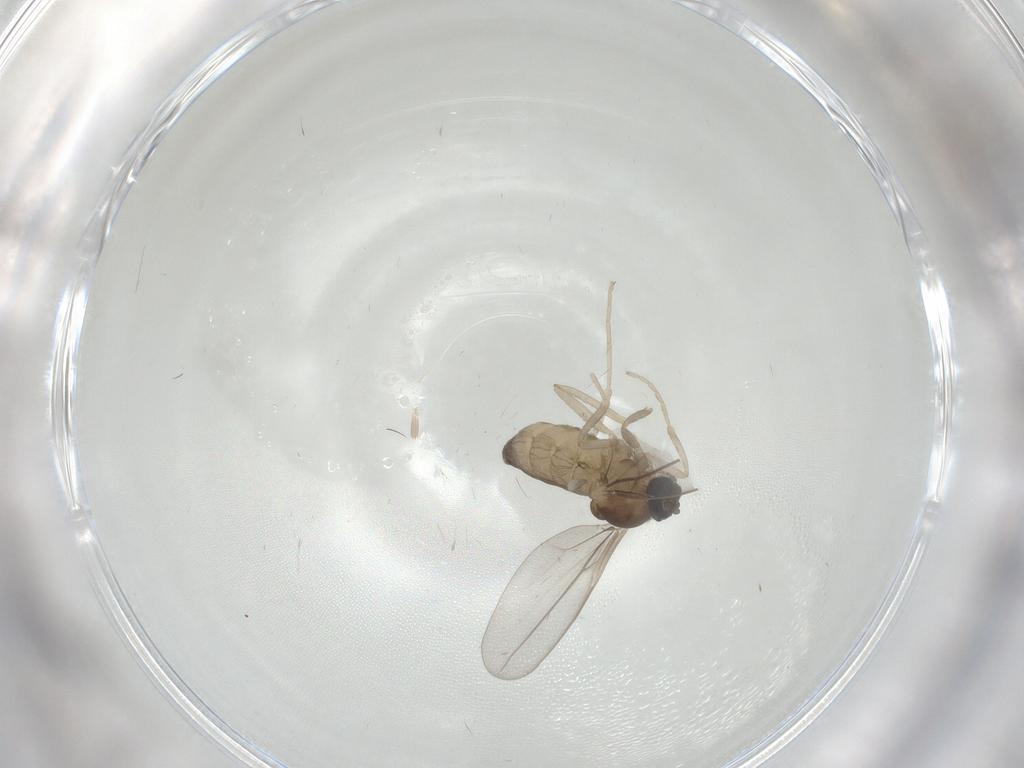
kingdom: Animalia
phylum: Arthropoda
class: Insecta
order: Diptera
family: Cecidomyiidae
